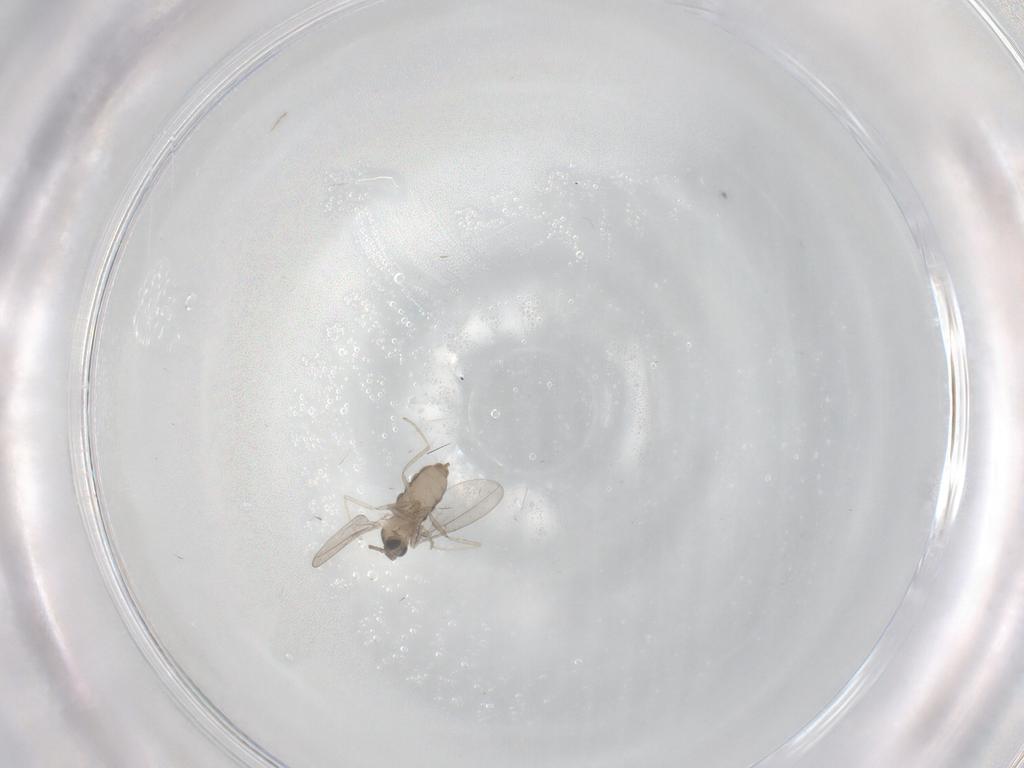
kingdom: Animalia
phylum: Arthropoda
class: Insecta
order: Diptera
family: Cecidomyiidae
